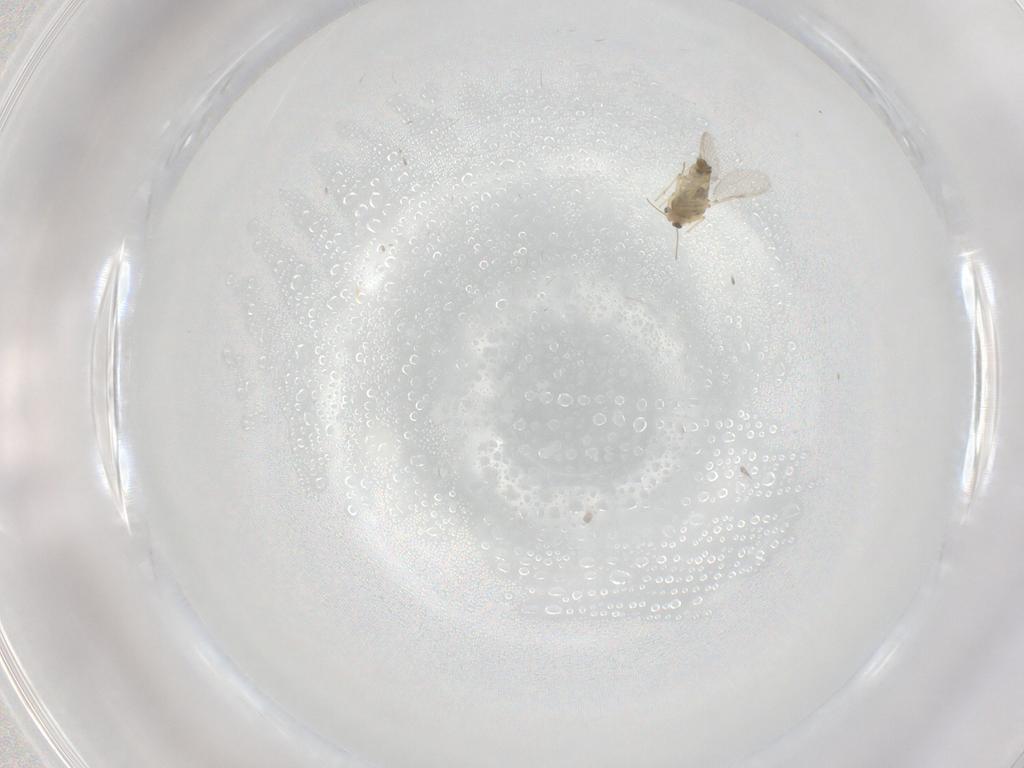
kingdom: Animalia
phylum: Arthropoda
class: Insecta
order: Diptera
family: Chironomidae
